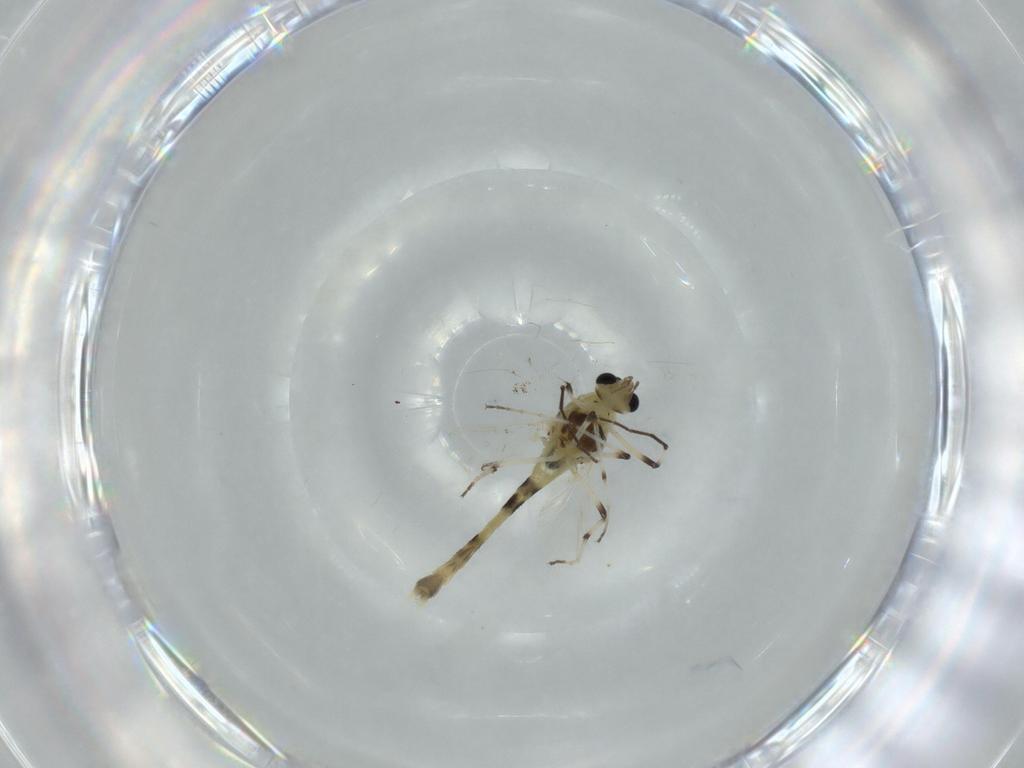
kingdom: Animalia
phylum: Arthropoda
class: Insecta
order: Diptera
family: Chironomidae
